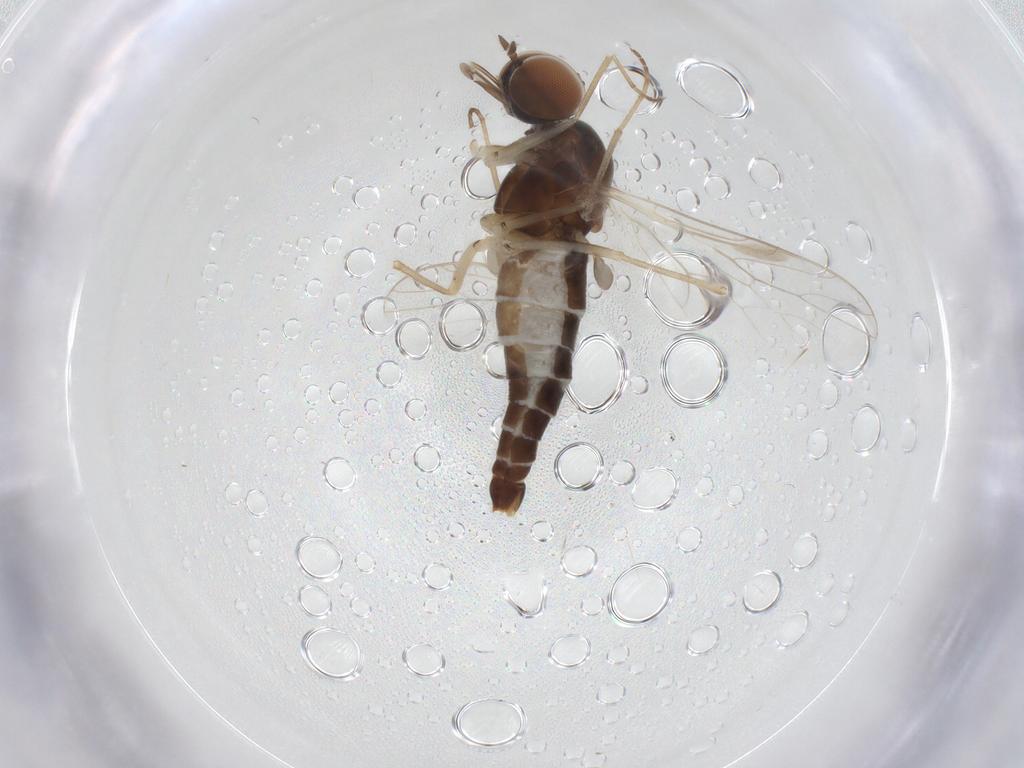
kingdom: Animalia
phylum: Arthropoda
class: Insecta
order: Diptera
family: Scenopinidae
